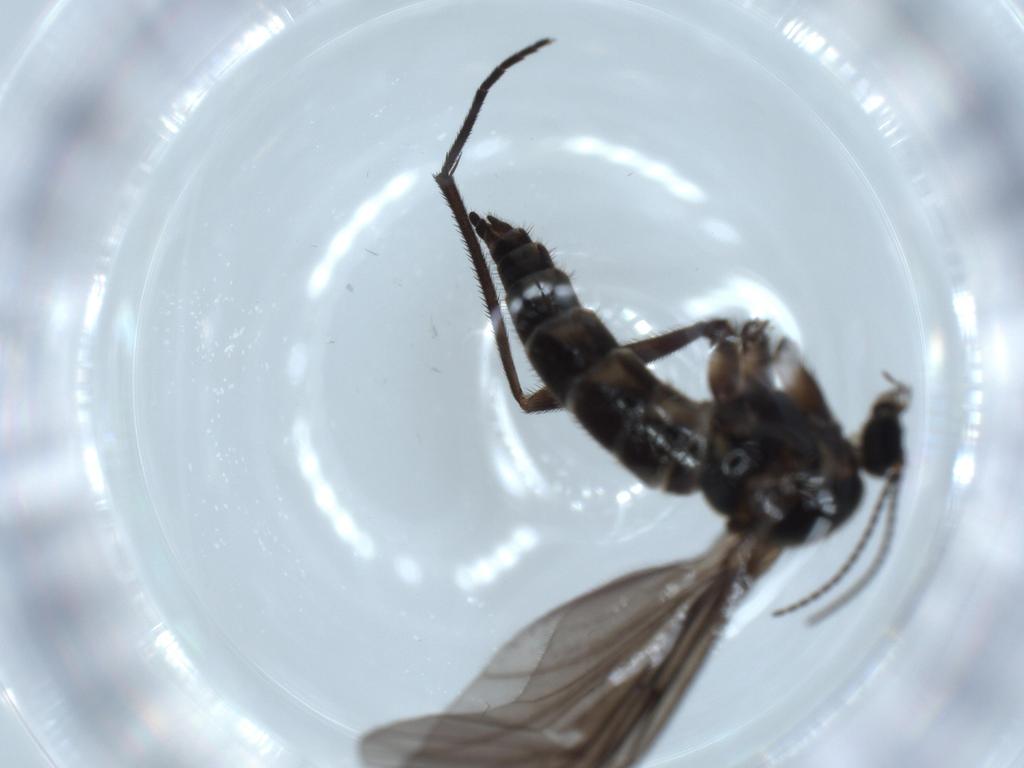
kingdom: Animalia
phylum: Arthropoda
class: Insecta
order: Diptera
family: Sciaridae
